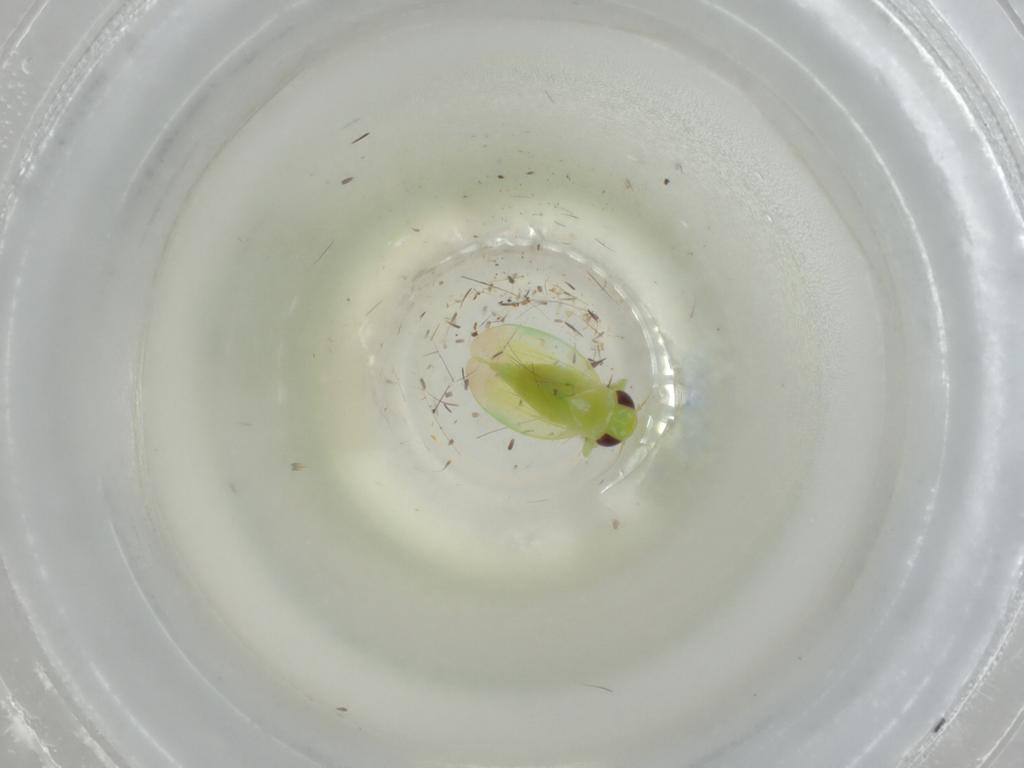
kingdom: Animalia
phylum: Arthropoda
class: Insecta
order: Hemiptera
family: Cicadellidae
